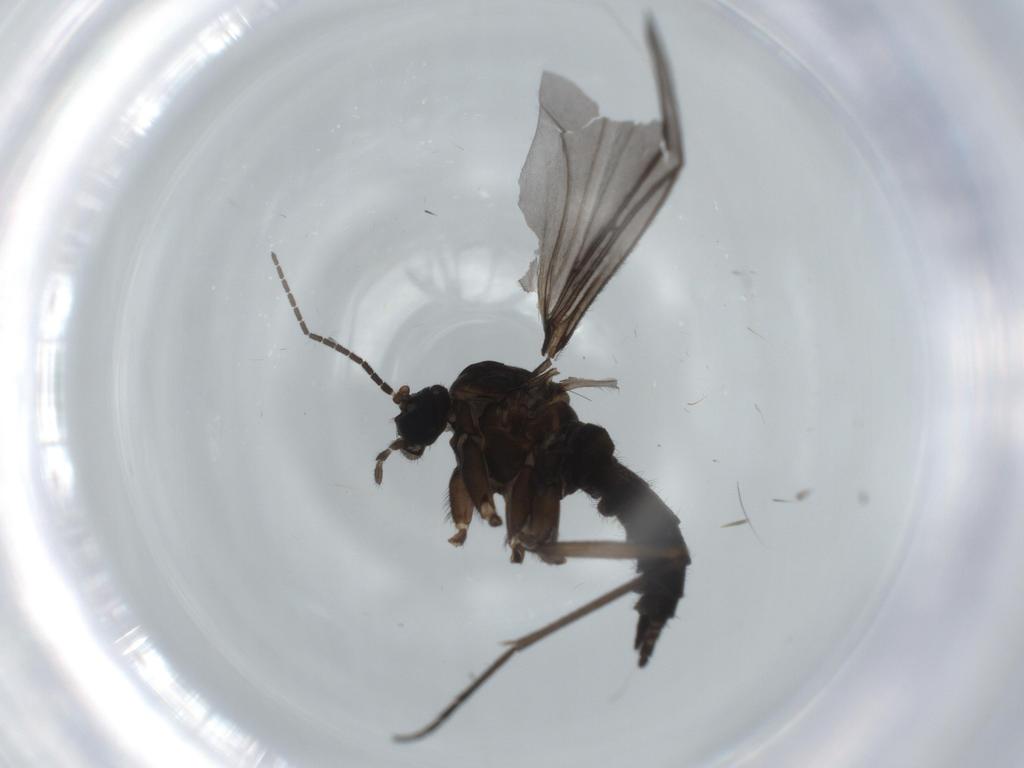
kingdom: Animalia
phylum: Arthropoda
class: Insecta
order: Diptera
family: Sciaridae
